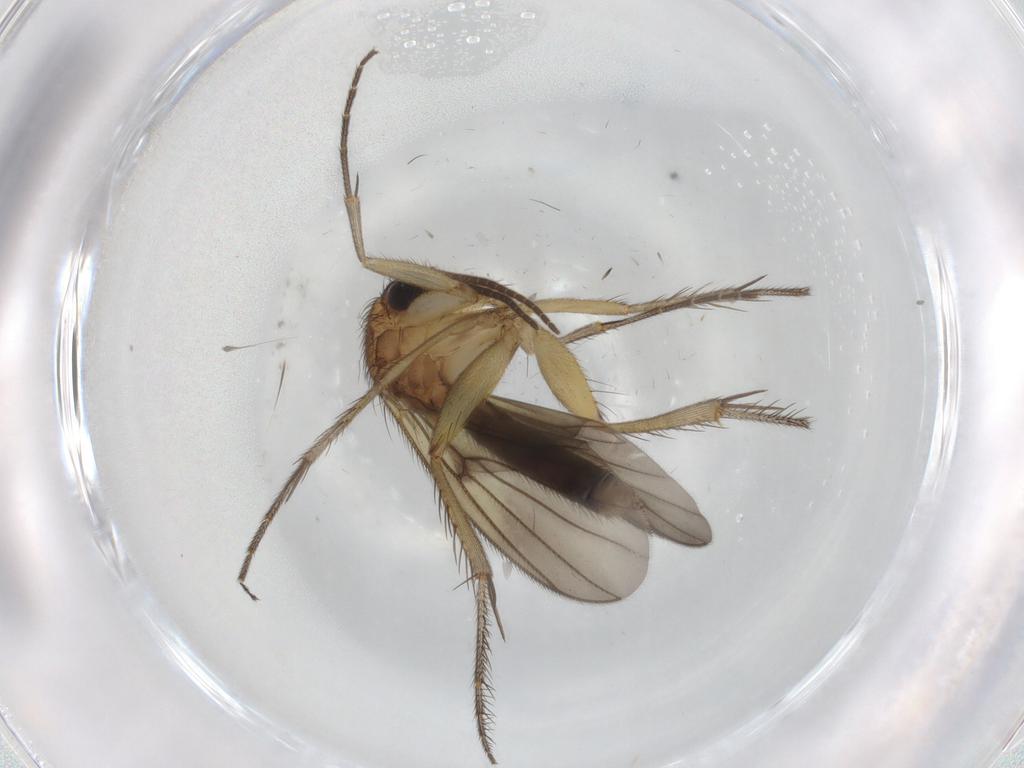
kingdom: Animalia
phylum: Arthropoda
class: Insecta
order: Diptera
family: Mycetophilidae
